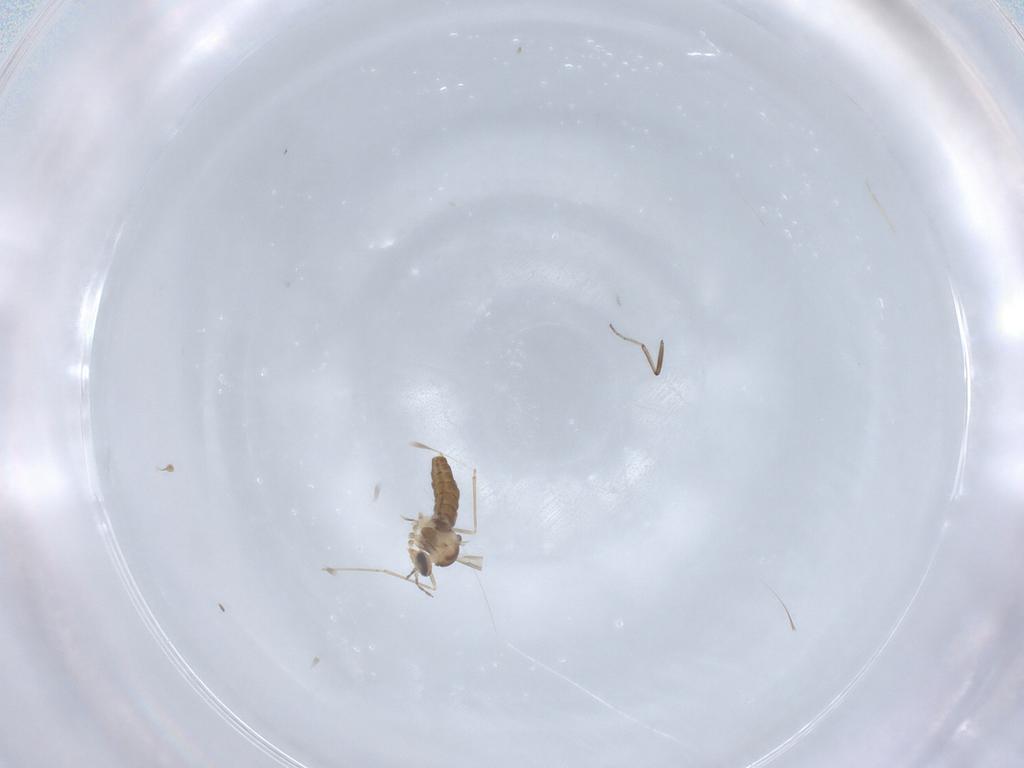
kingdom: Animalia
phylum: Arthropoda
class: Insecta
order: Diptera
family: Ceratopogonidae
